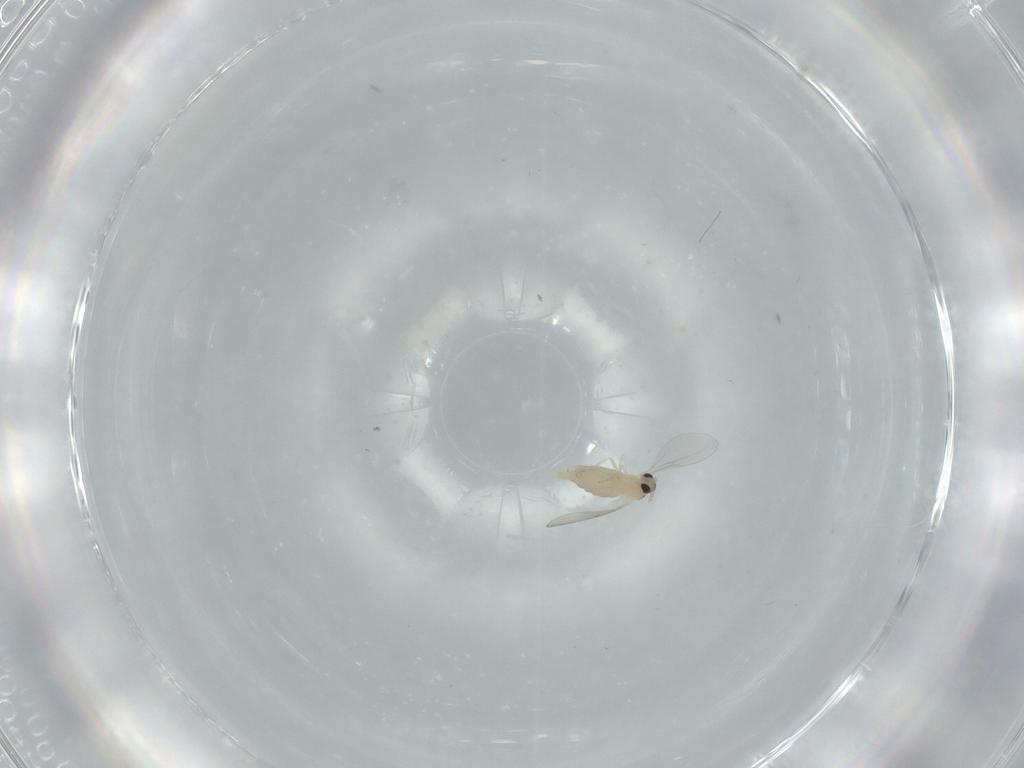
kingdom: Animalia
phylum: Arthropoda
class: Insecta
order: Diptera
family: Cecidomyiidae
